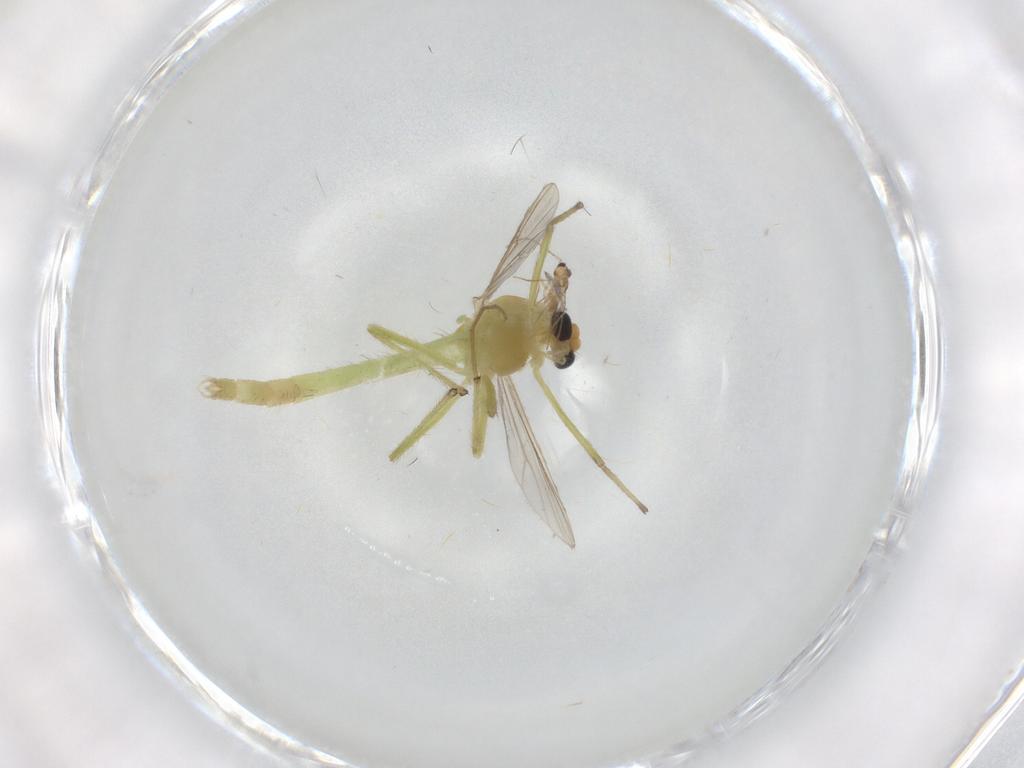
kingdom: Animalia
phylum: Arthropoda
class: Insecta
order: Diptera
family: Chironomidae
